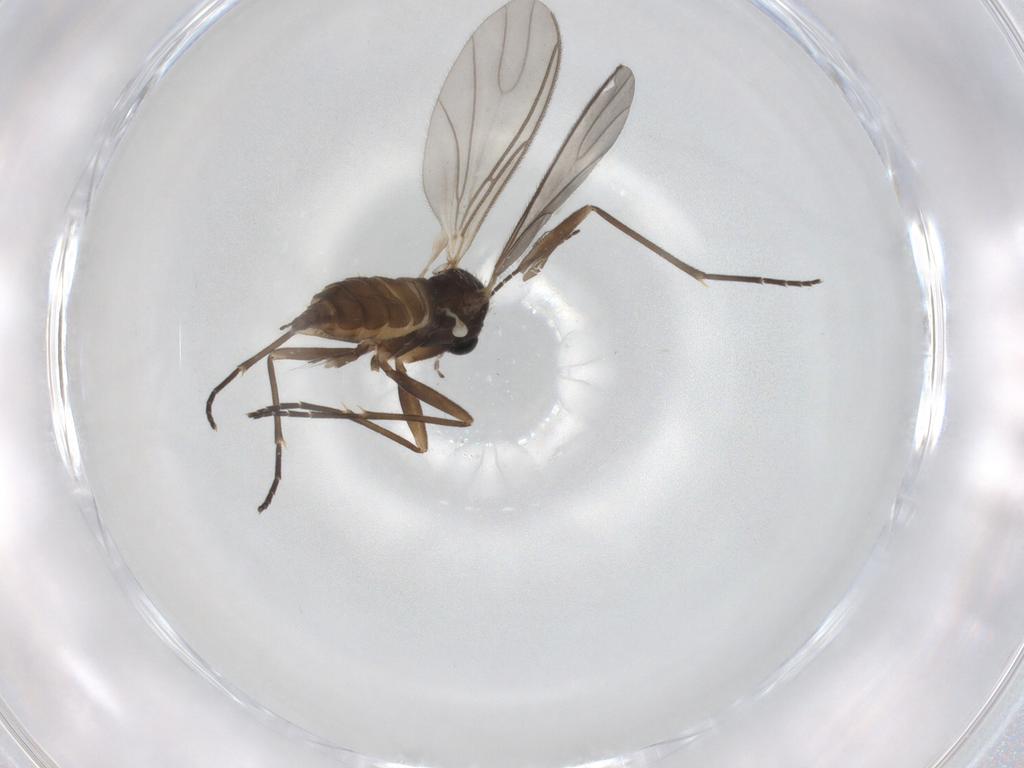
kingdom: Animalia
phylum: Arthropoda
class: Insecta
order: Diptera
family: Sciaridae
